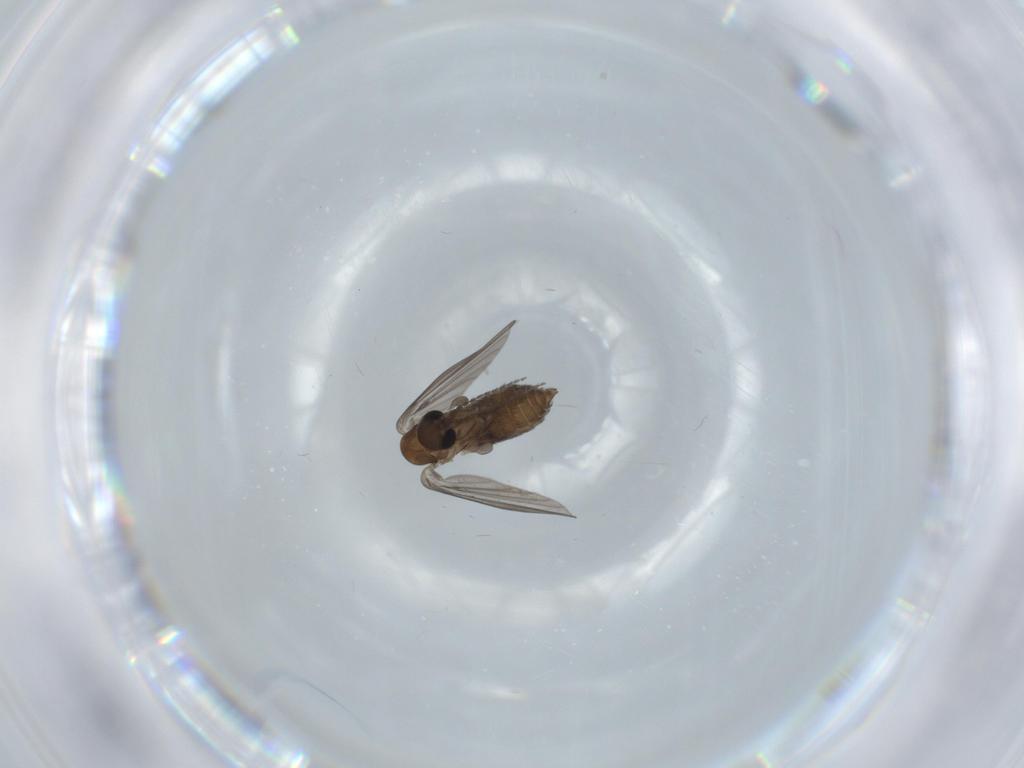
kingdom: Animalia
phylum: Arthropoda
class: Insecta
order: Diptera
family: Psychodidae
